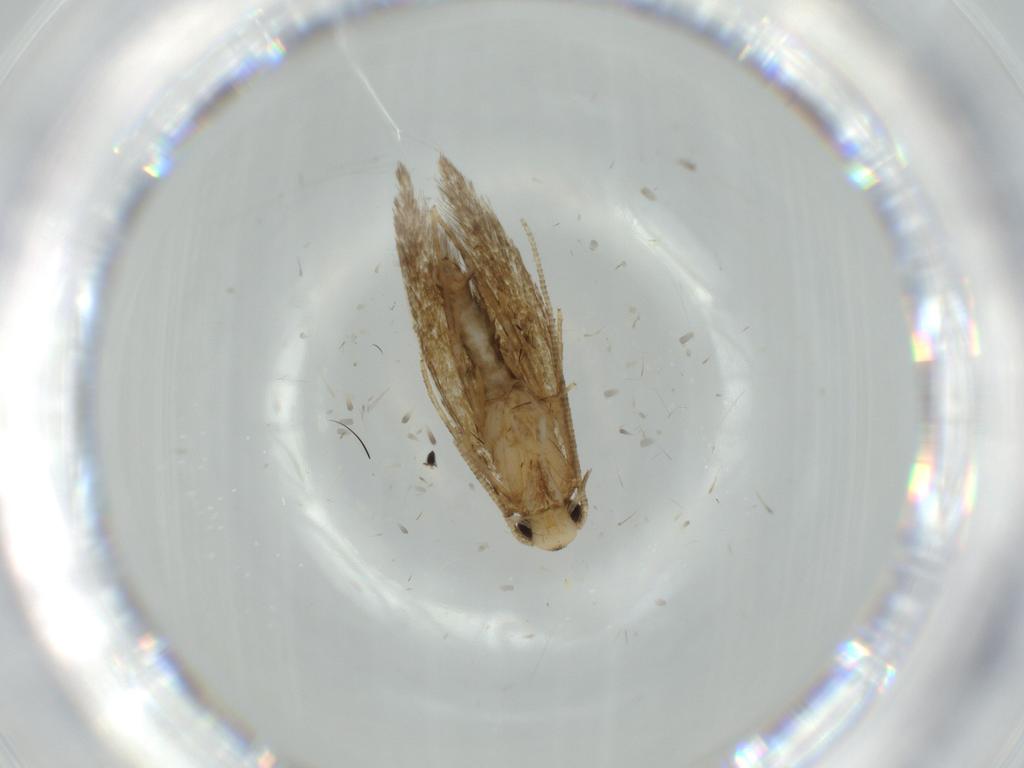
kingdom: Animalia
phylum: Arthropoda
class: Insecta
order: Lepidoptera
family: Tineidae
